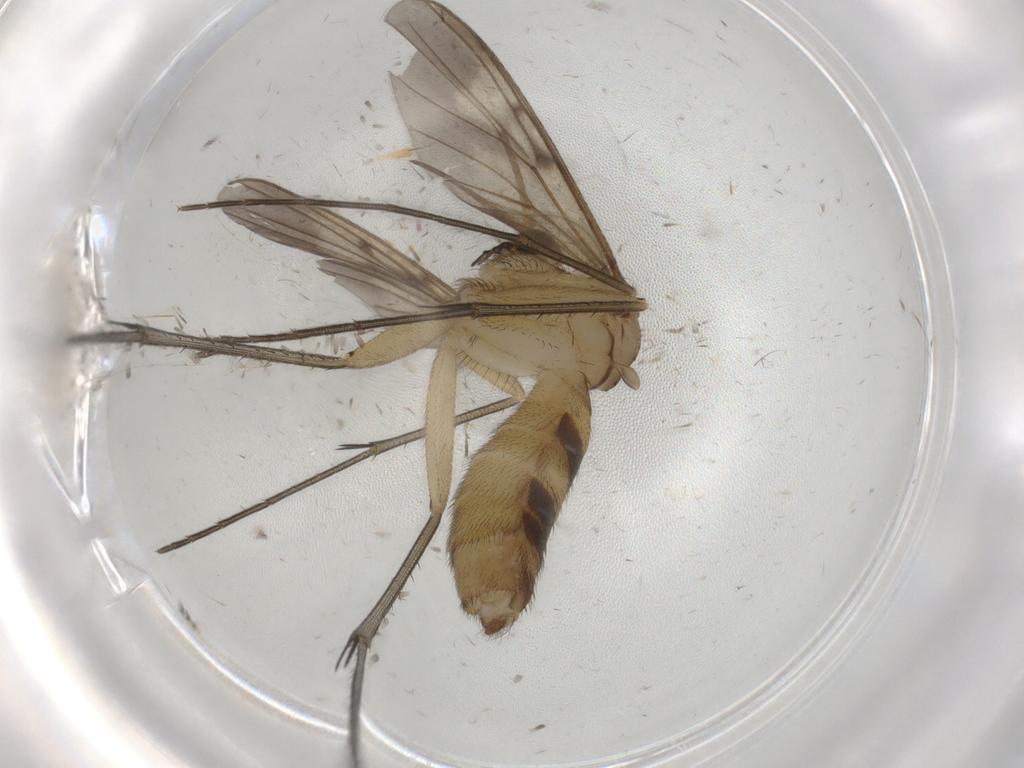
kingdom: Animalia
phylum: Arthropoda
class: Insecta
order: Diptera
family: Mycetophilidae
